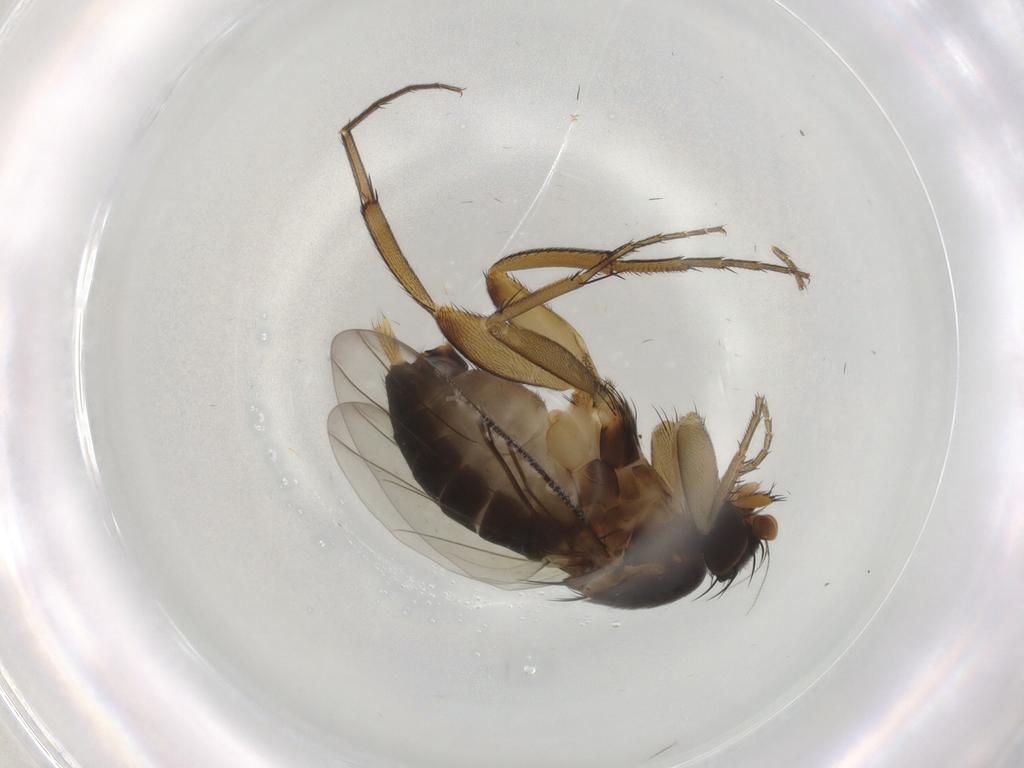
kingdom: Animalia
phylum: Arthropoda
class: Insecta
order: Diptera
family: Phoridae
